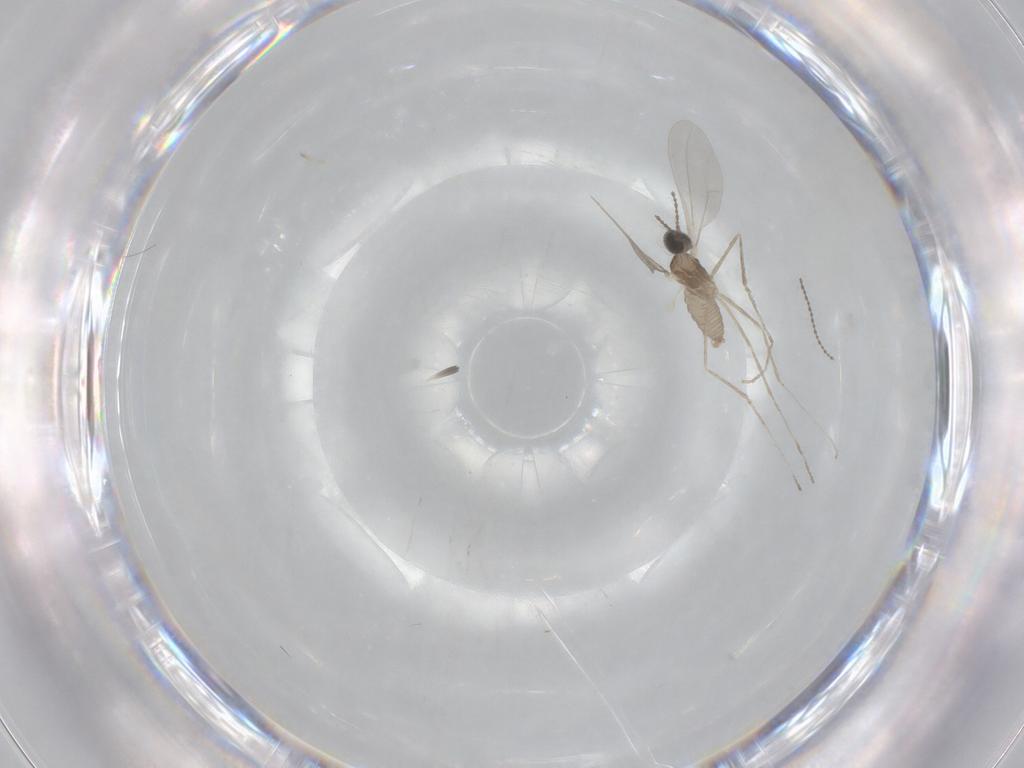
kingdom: Animalia
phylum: Arthropoda
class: Insecta
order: Diptera
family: Cecidomyiidae
